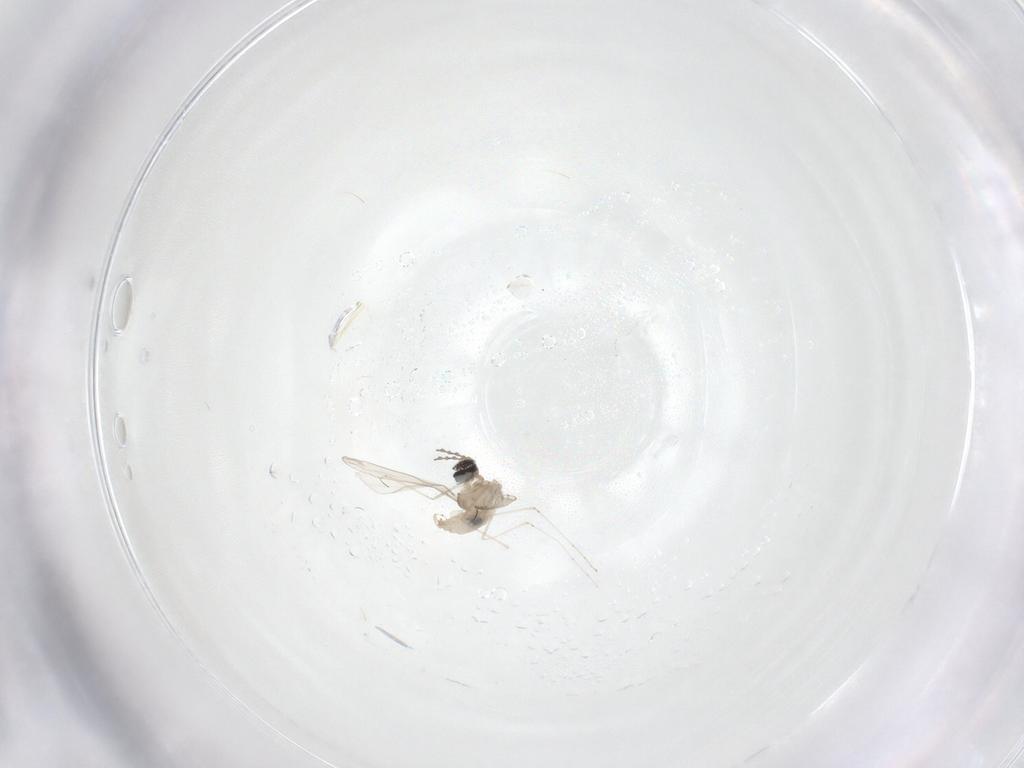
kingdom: Animalia
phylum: Arthropoda
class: Insecta
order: Diptera
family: Cecidomyiidae
